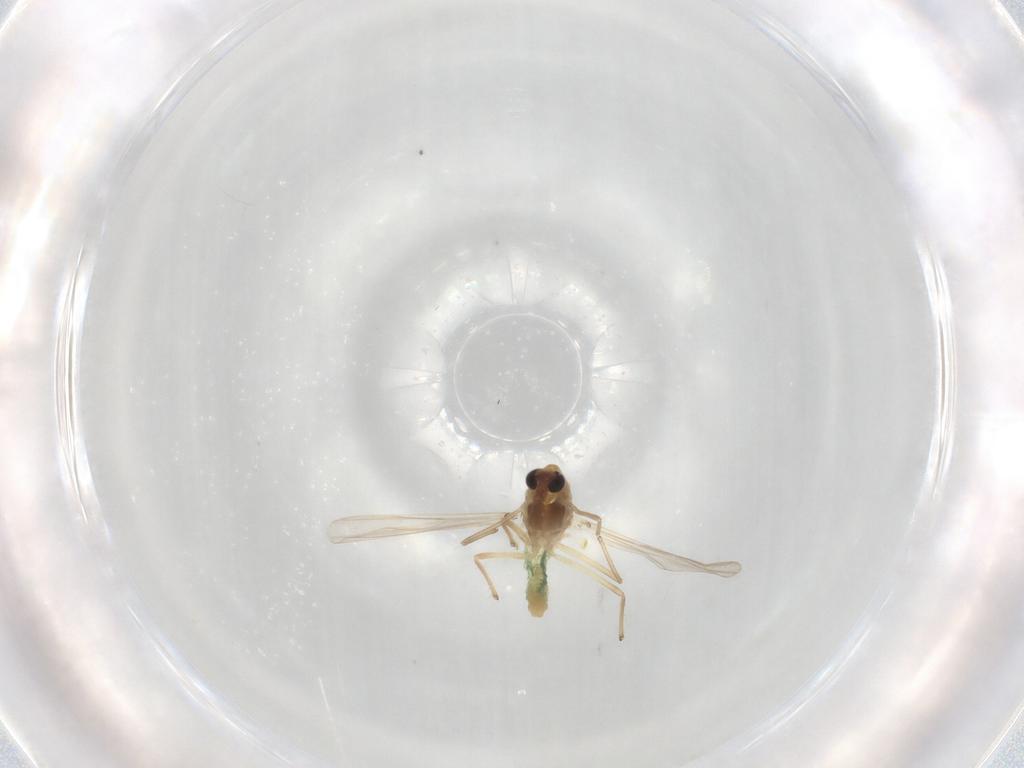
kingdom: Animalia
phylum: Arthropoda
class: Insecta
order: Diptera
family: Chironomidae
